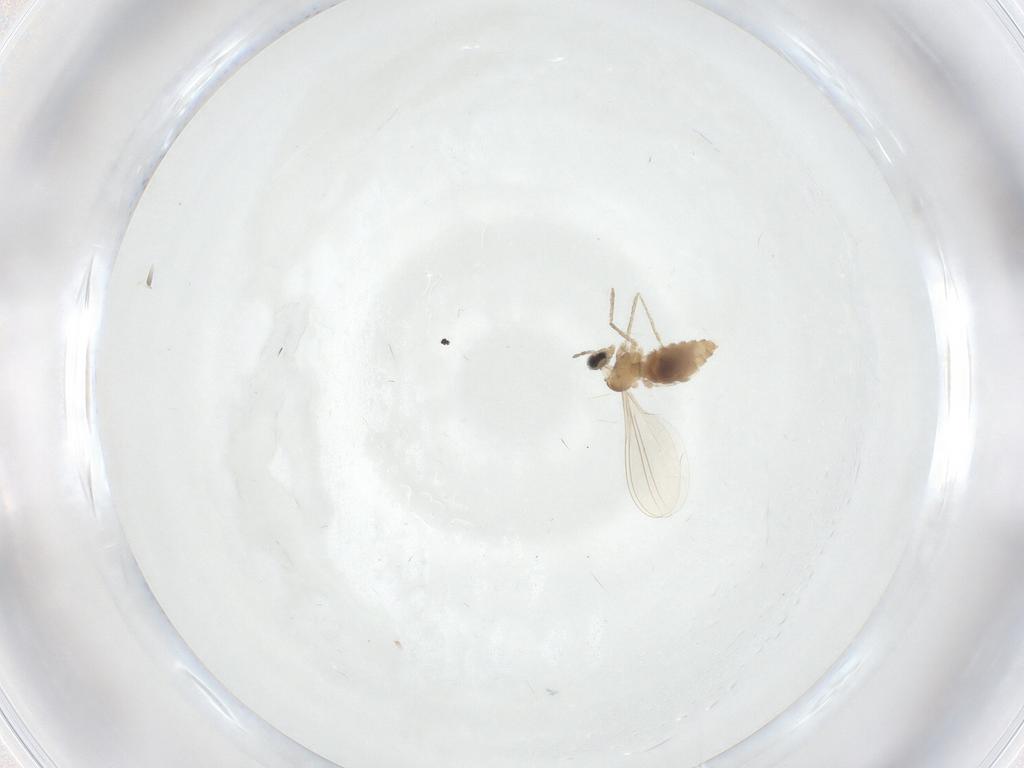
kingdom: Animalia
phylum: Arthropoda
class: Insecta
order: Diptera
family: Cecidomyiidae
